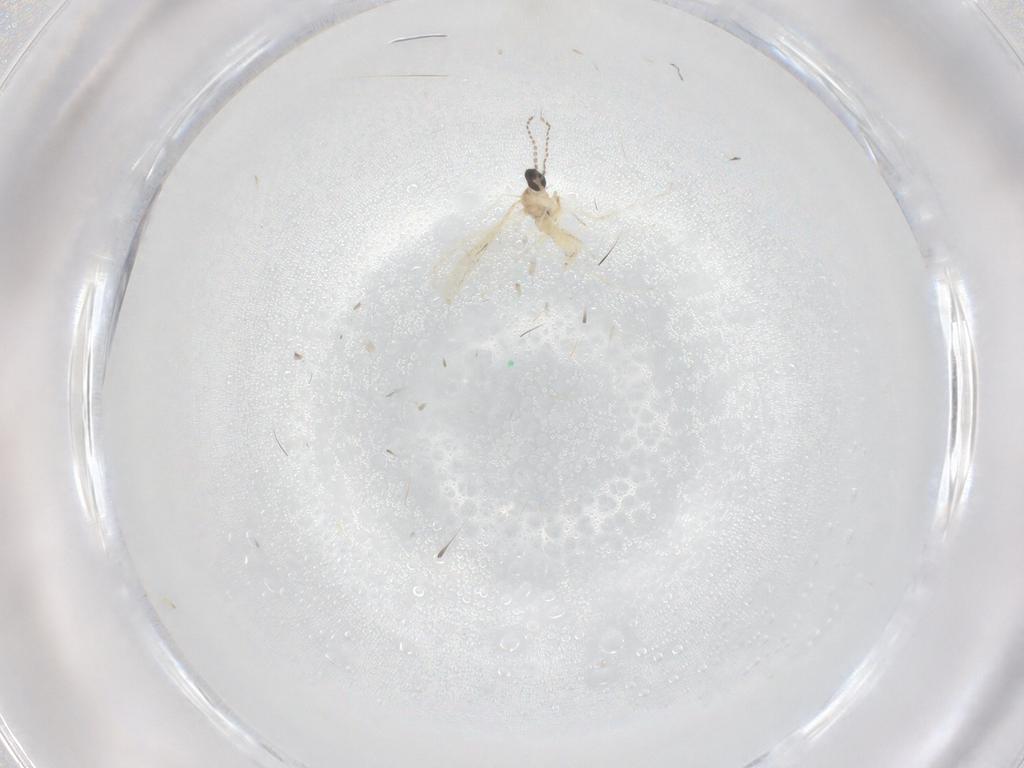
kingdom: Animalia
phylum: Arthropoda
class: Insecta
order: Diptera
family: Cecidomyiidae
